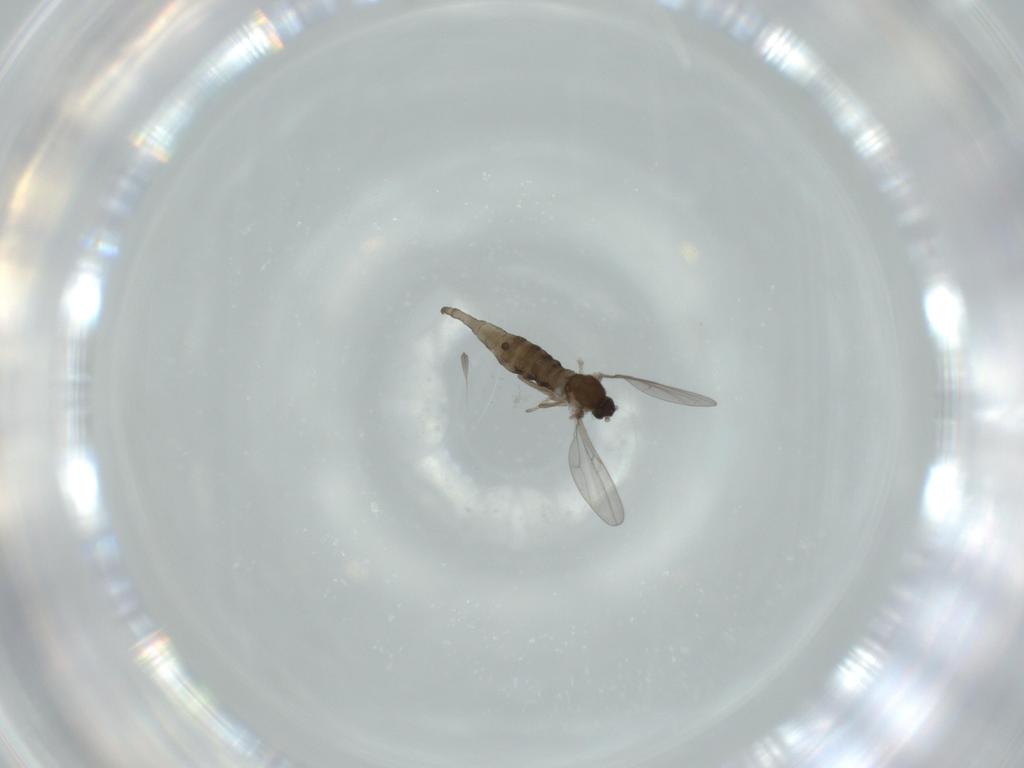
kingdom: Animalia
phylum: Arthropoda
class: Insecta
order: Diptera
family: Cecidomyiidae
